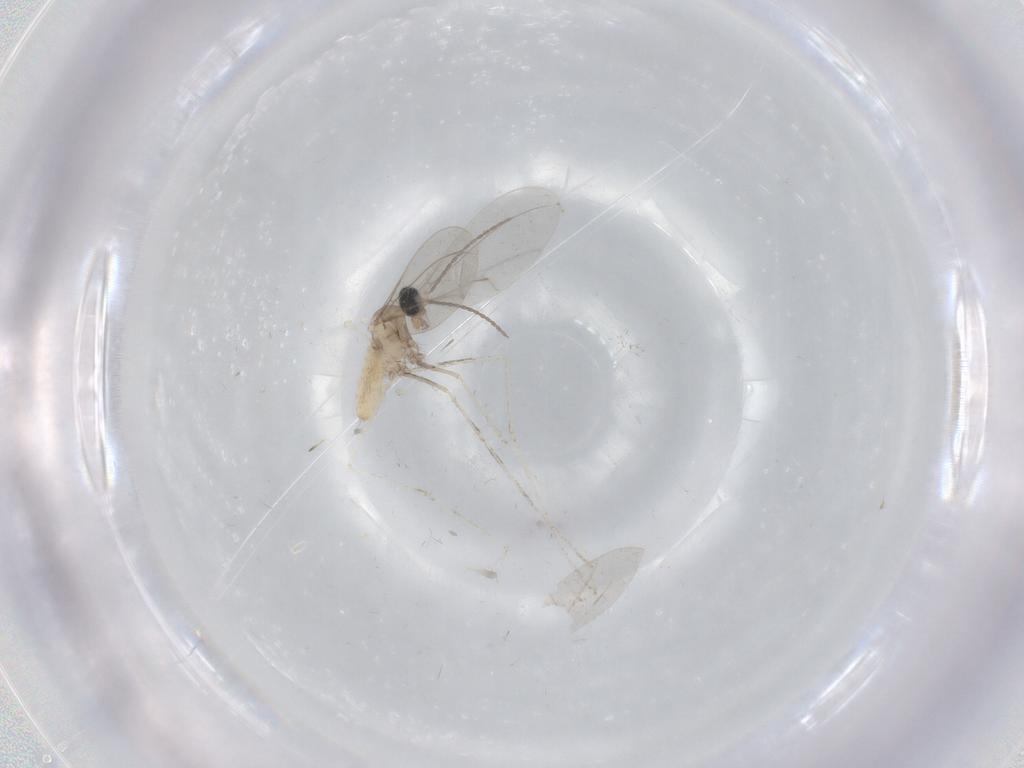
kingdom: Animalia
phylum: Arthropoda
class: Insecta
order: Diptera
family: Cecidomyiidae
